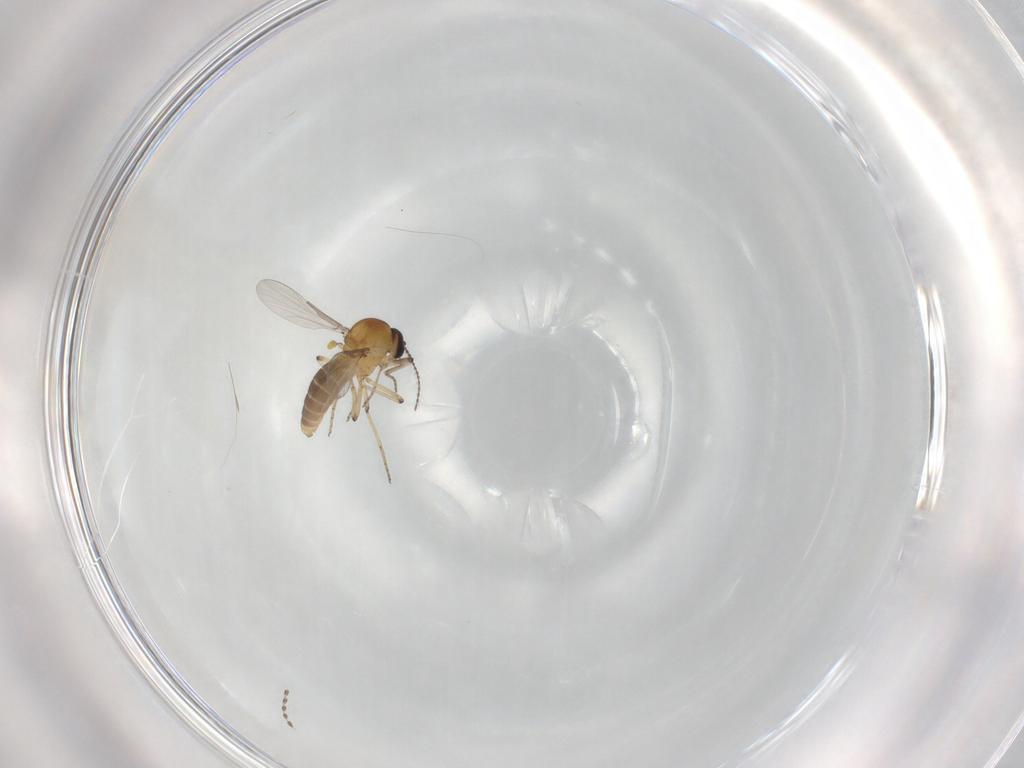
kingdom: Animalia
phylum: Arthropoda
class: Insecta
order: Diptera
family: Ceratopogonidae
